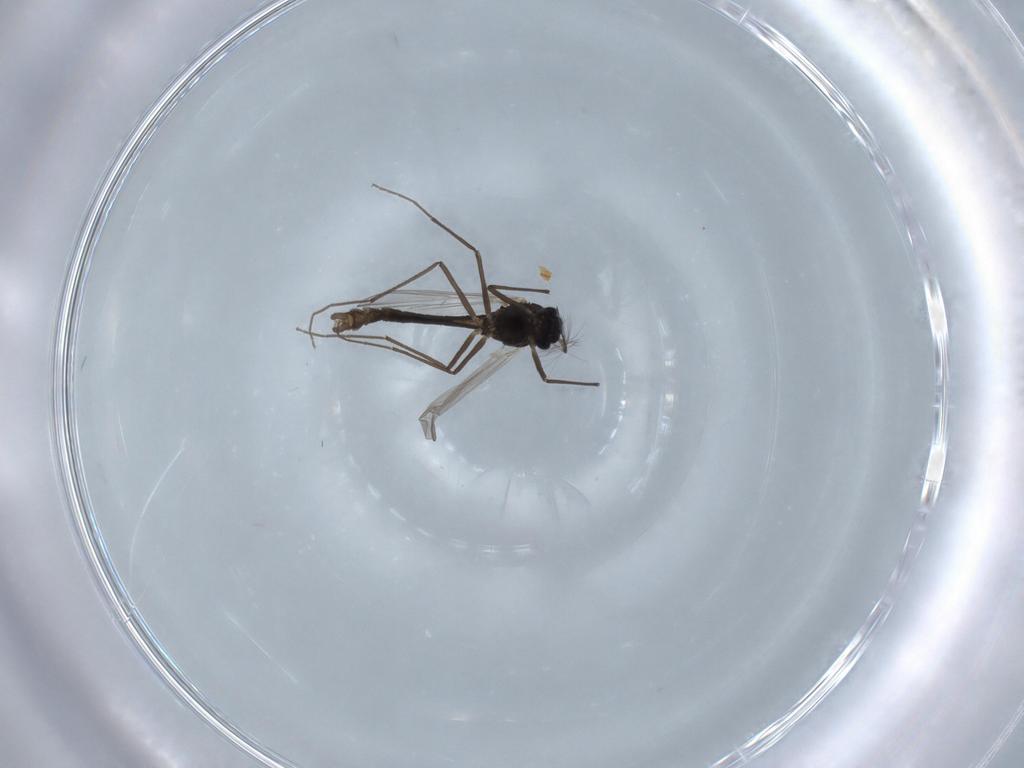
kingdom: Animalia
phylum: Arthropoda
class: Insecta
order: Diptera
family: Chironomidae
